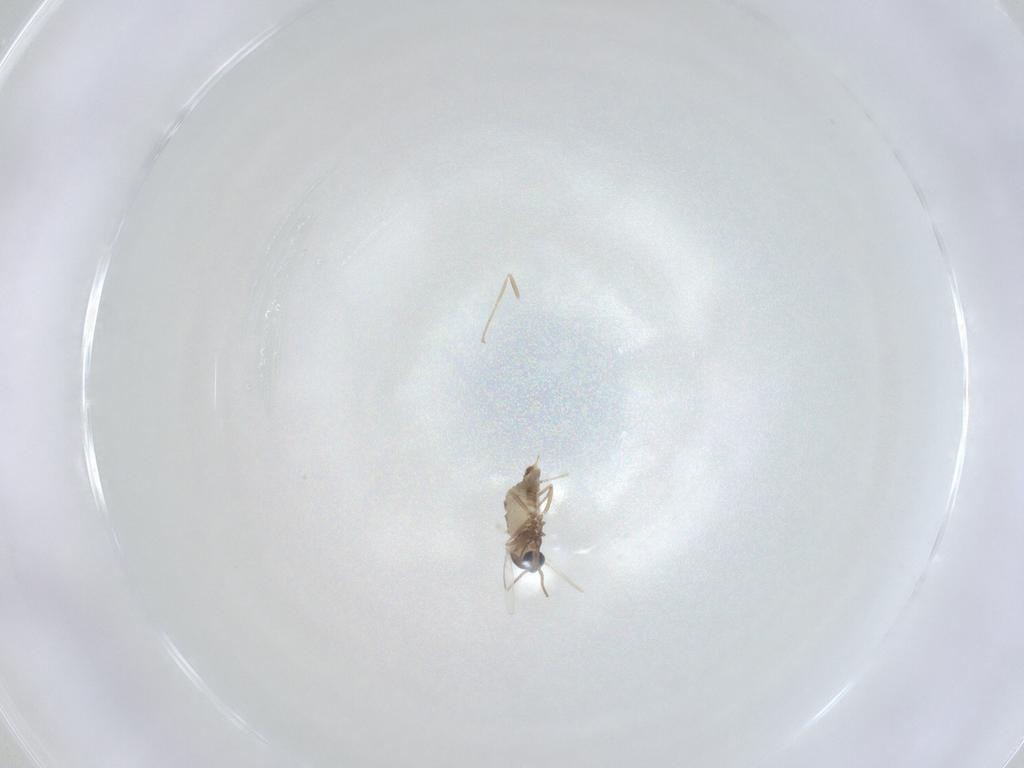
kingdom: Animalia
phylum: Arthropoda
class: Insecta
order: Diptera
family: Cecidomyiidae
